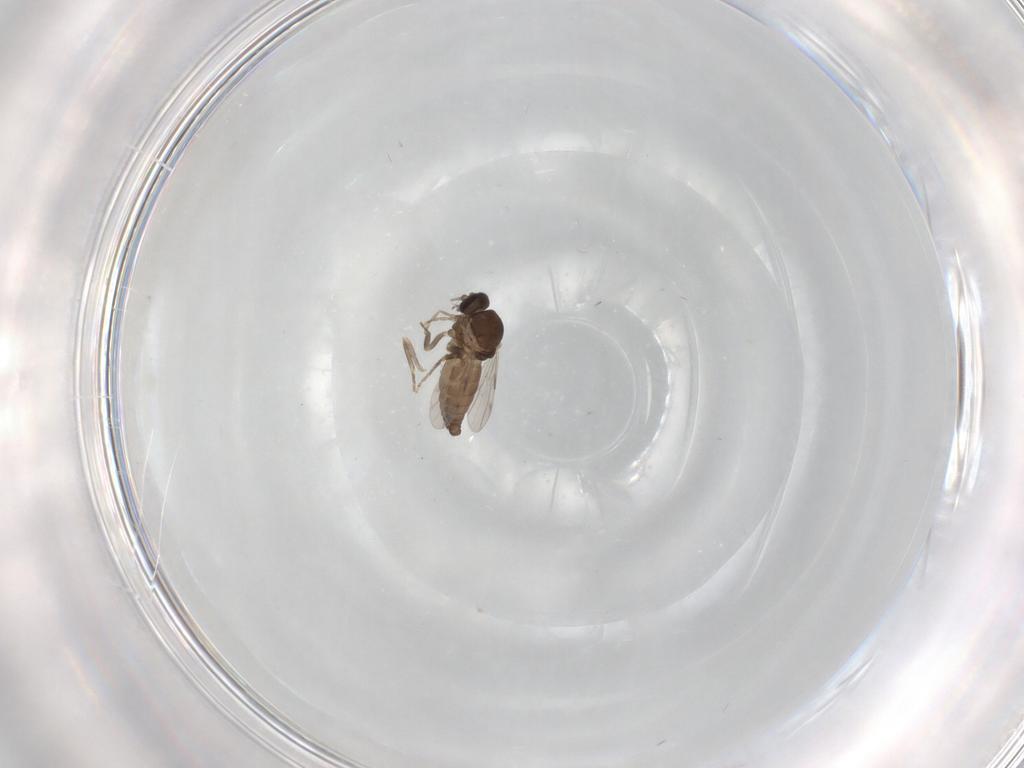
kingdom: Animalia
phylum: Arthropoda
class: Insecta
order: Diptera
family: Ceratopogonidae
